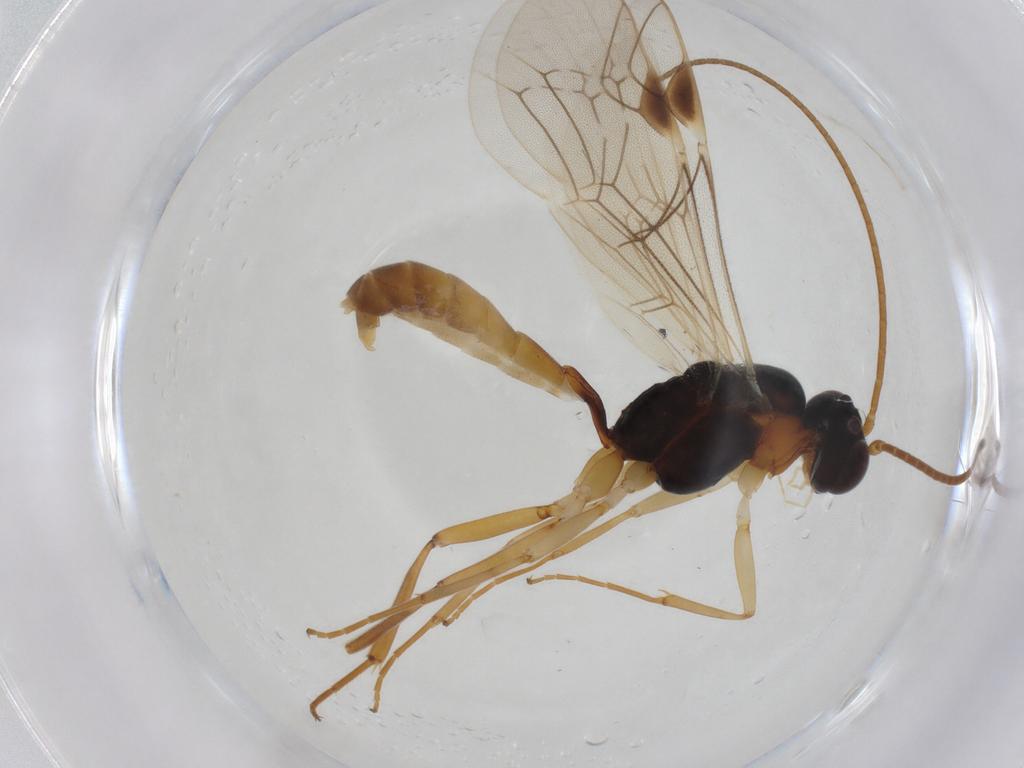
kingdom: Animalia
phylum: Arthropoda
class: Insecta
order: Hymenoptera
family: Ichneumonidae
